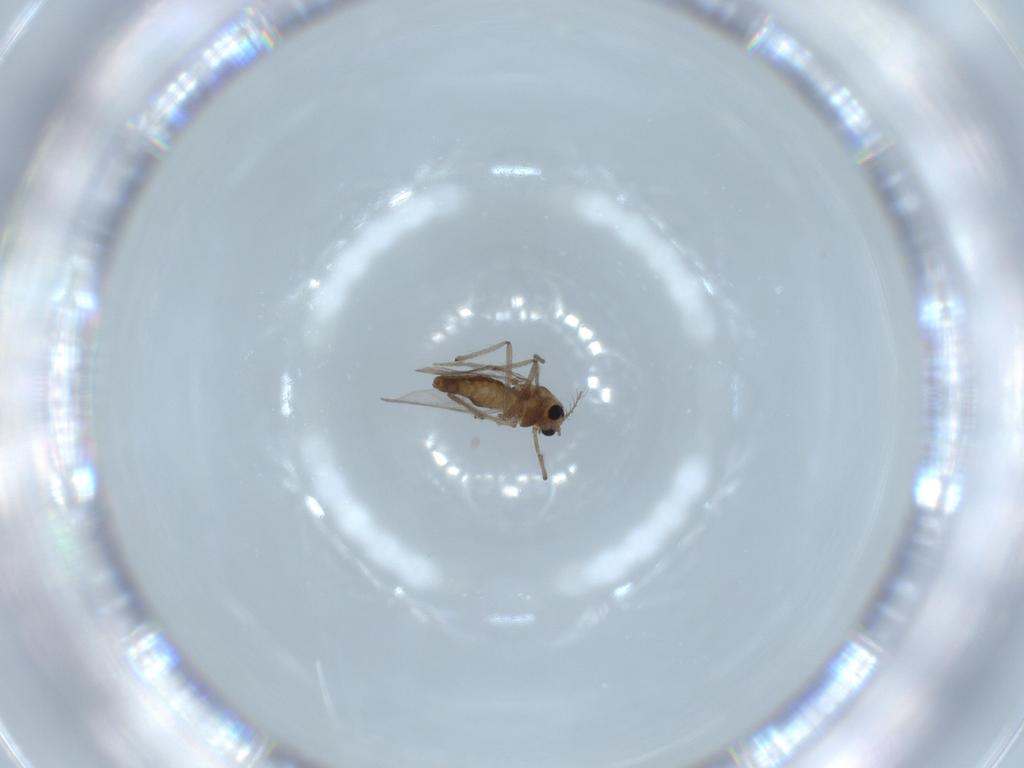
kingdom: Animalia
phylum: Arthropoda
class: Insecta
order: Diptera
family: Chironomidae
